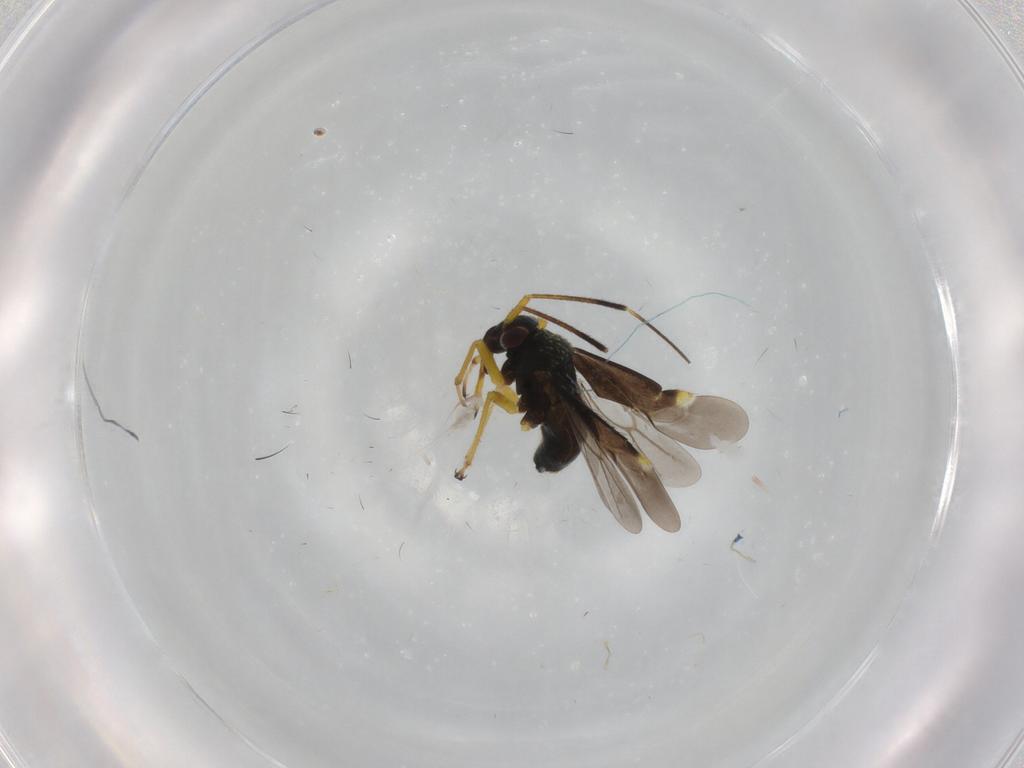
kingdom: Animalia
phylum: Arthropoda
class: Insecta
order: Hemiptera
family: Miridae
